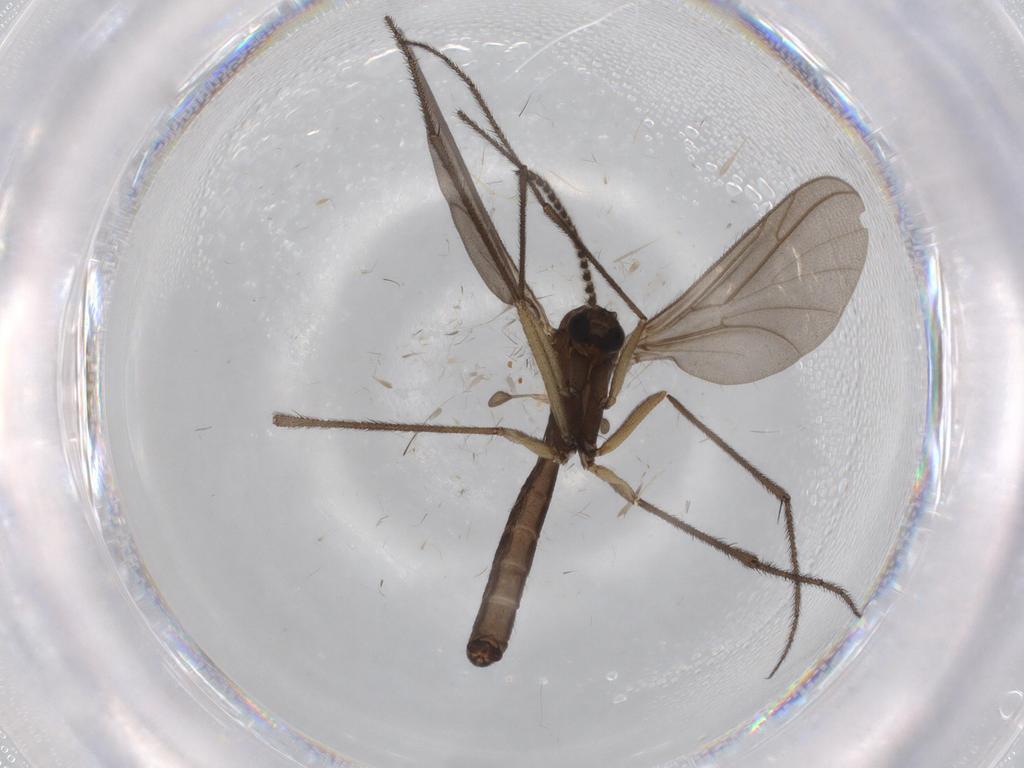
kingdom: Animalia
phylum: Arthropoda
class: Insecta
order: Diptera
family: Ditomyiidae
